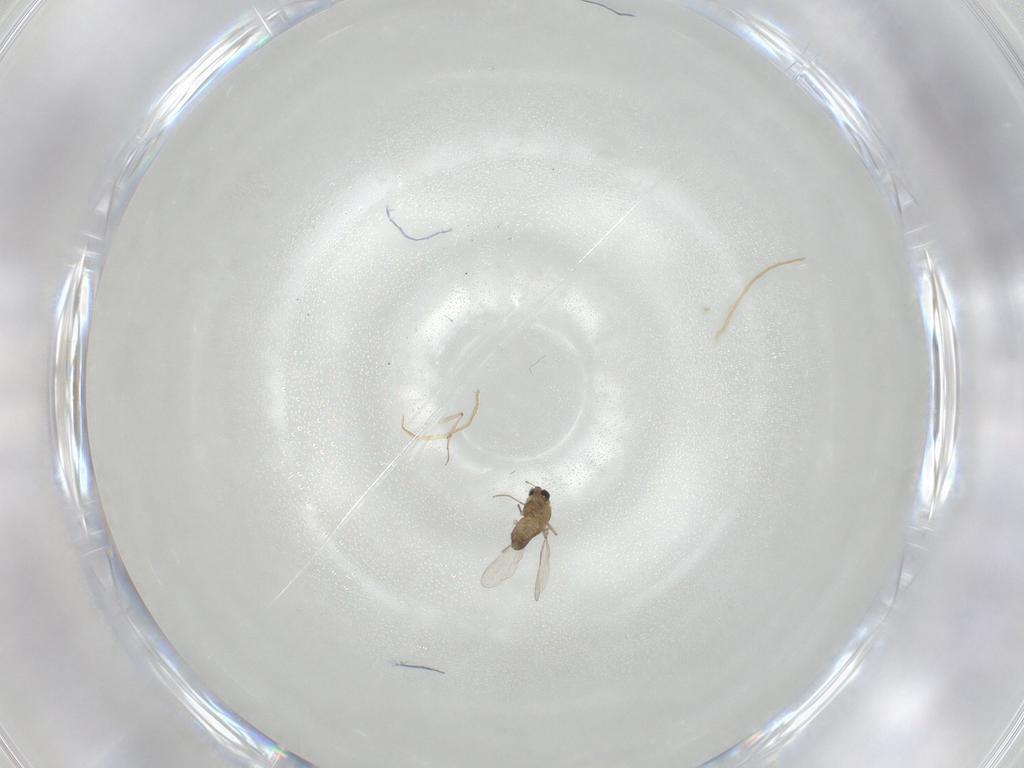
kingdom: Animalia
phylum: Arthropoda
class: Insecta
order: Diptera
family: Chironomidae
